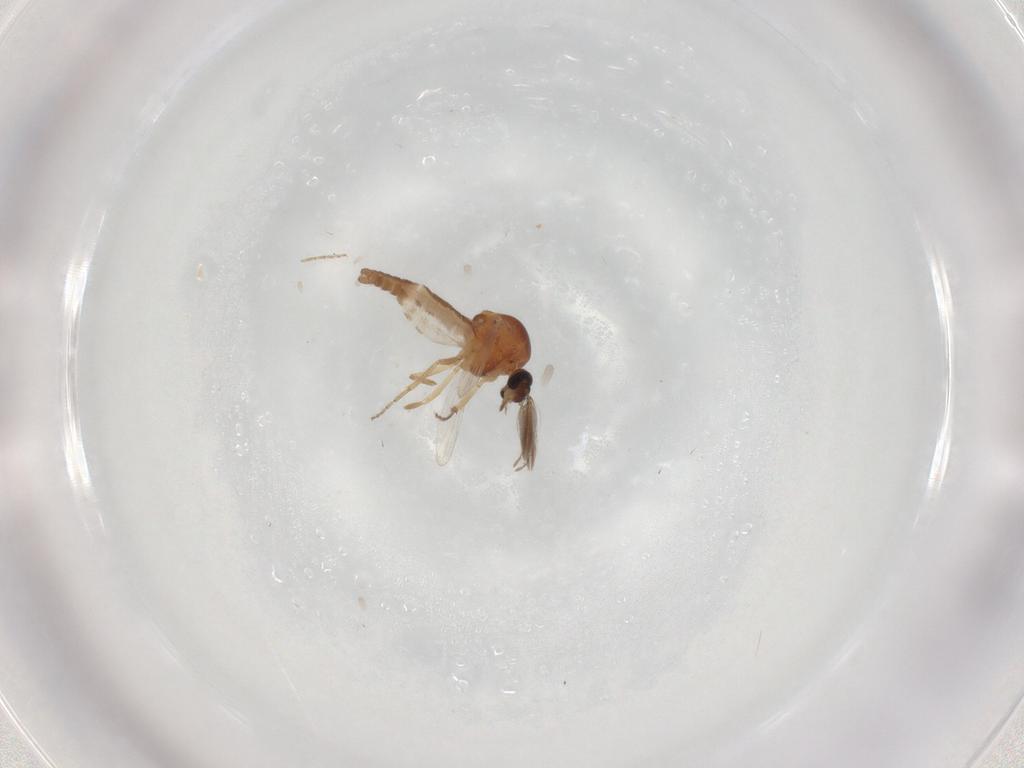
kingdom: Animalia
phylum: Arthropoda
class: Insecta
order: Diptera
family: Ceratopogonidae
